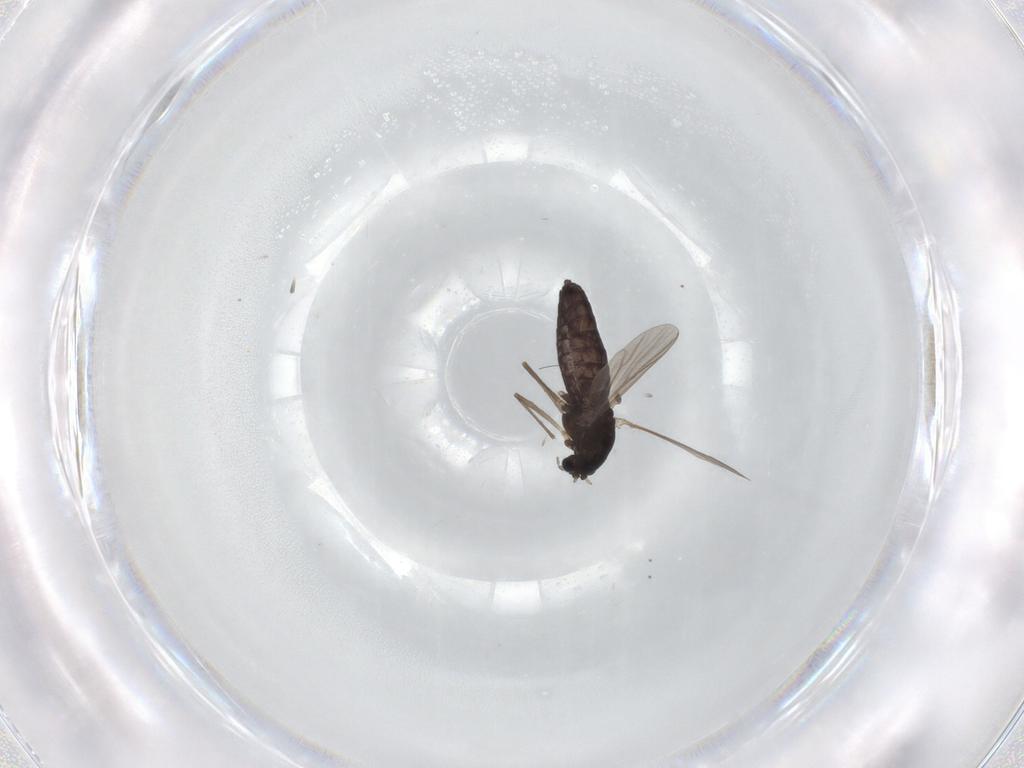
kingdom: Animalia
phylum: Arthropoda
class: Insecta
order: Diptera
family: Chironomidae
